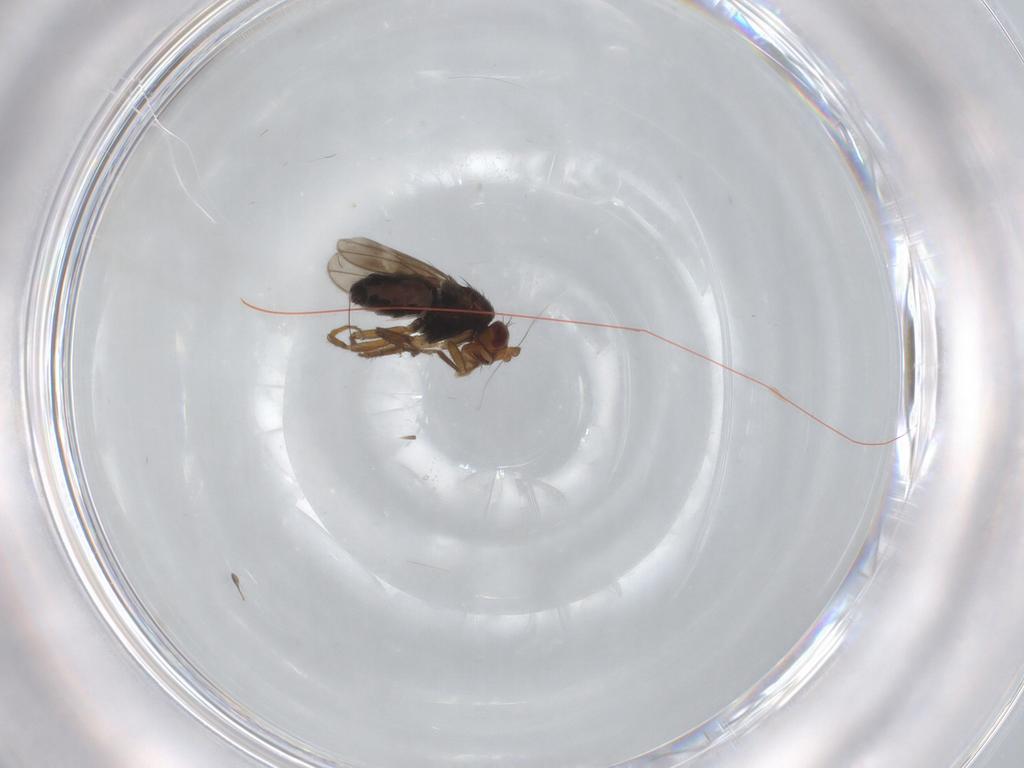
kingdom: Animalia
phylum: Arthropoda
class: Insecta
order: Diptera
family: Sphaeroceridae
